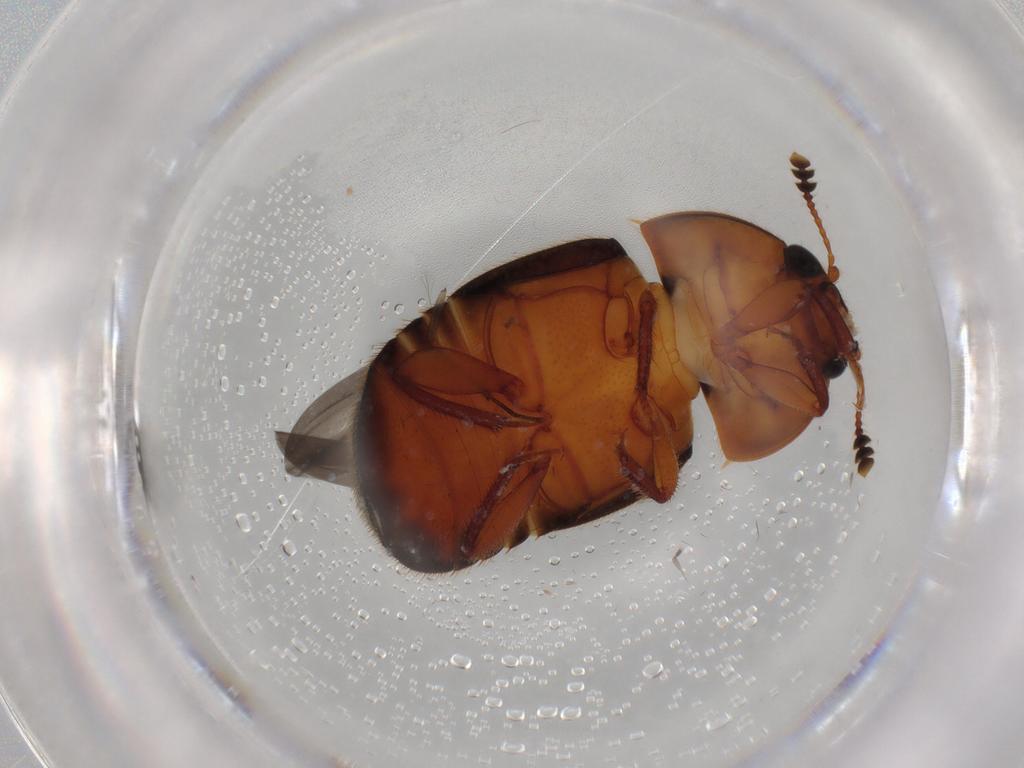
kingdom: Animalia
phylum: Arthropoda
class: Insecta
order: Coleoptera
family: Nitidulidae
